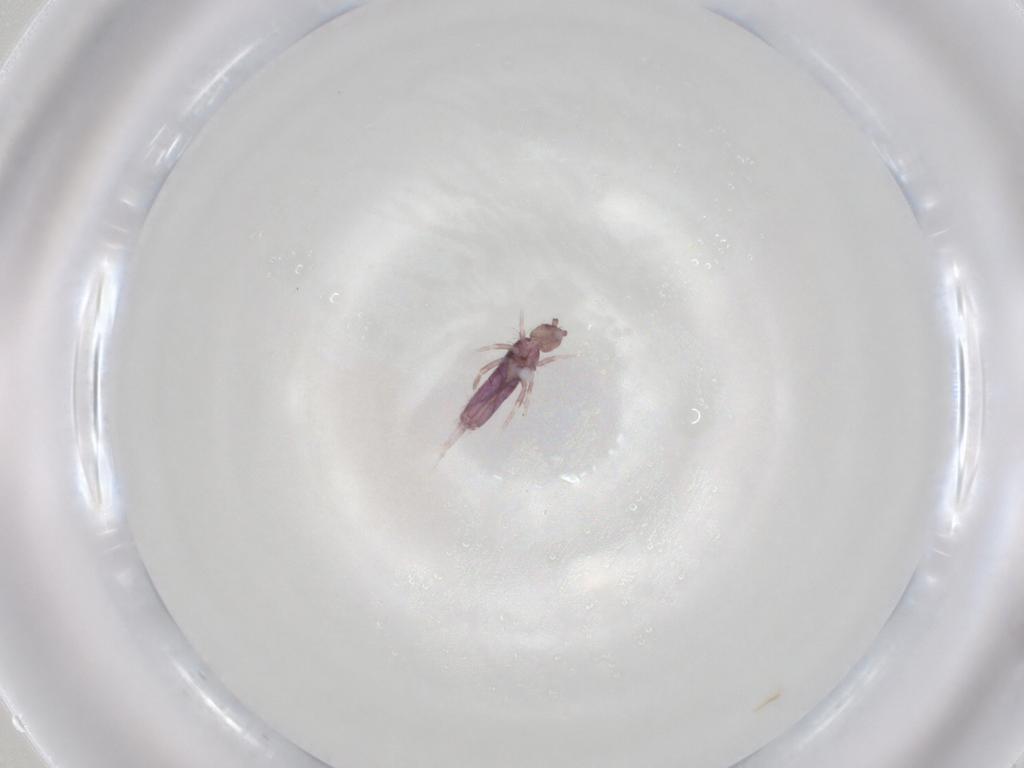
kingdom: Animalia
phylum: Arthropoda
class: Collembola
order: Entomobryomorpha
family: Entomobryidae
